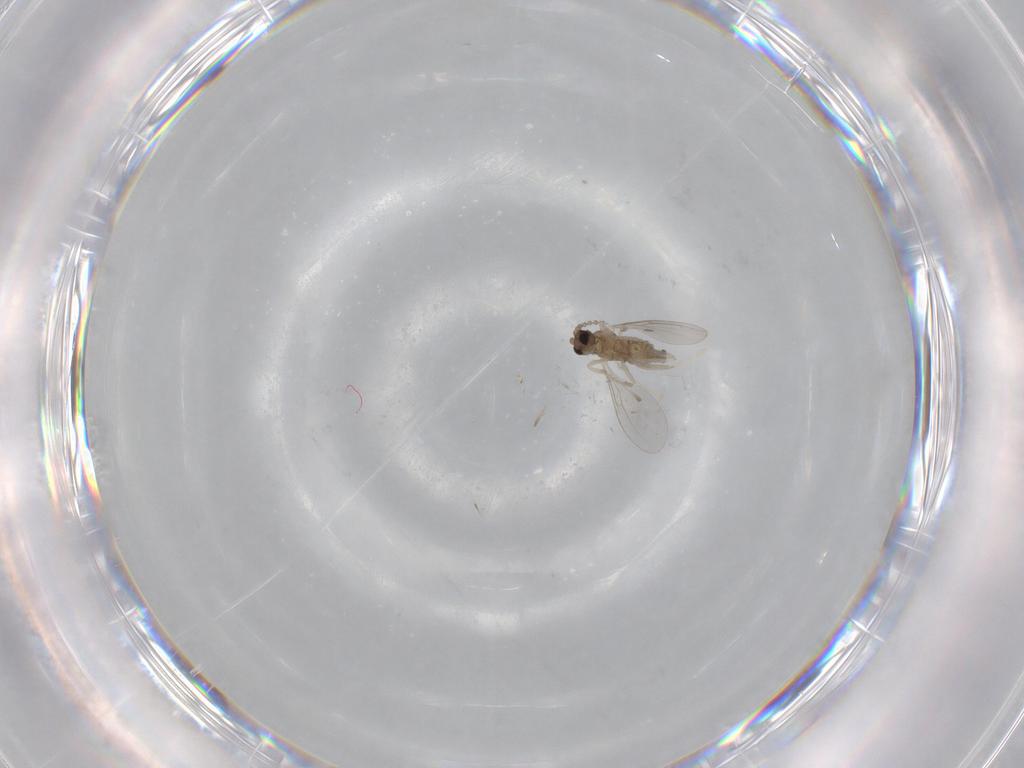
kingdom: Animalia
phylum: Arthropoda
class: Insecta
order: Diptera
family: Cecidomyiidae
